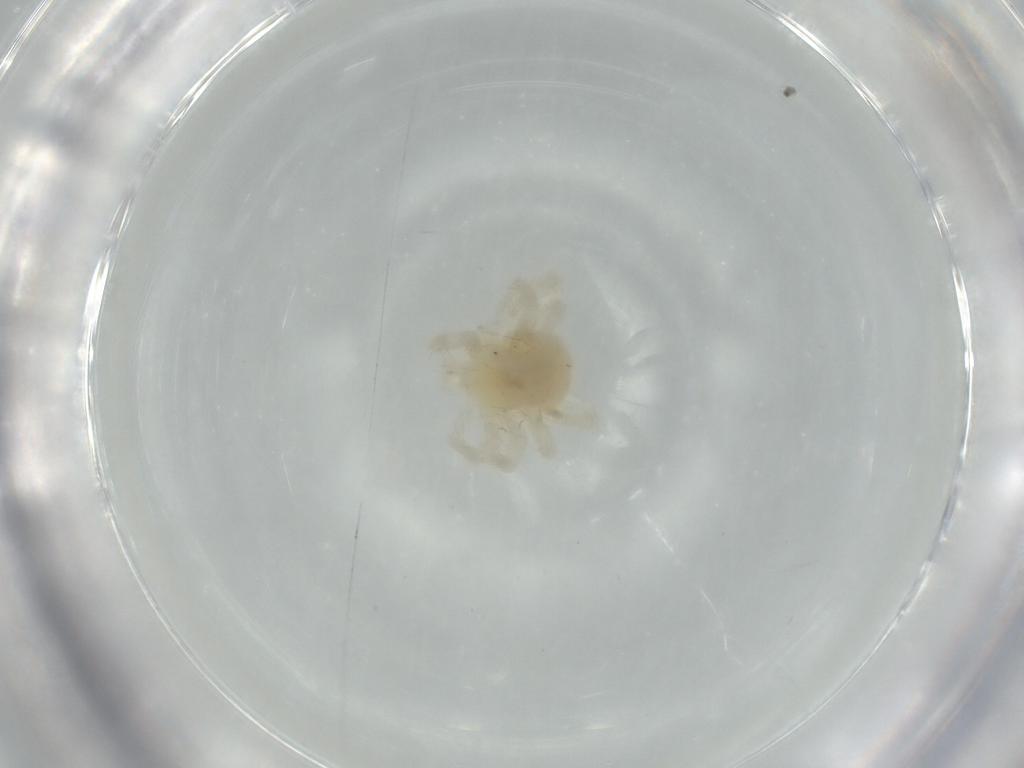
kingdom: Animalia
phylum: Arthropoda
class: Arachnida
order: Trombidiformes
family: Anystidae
